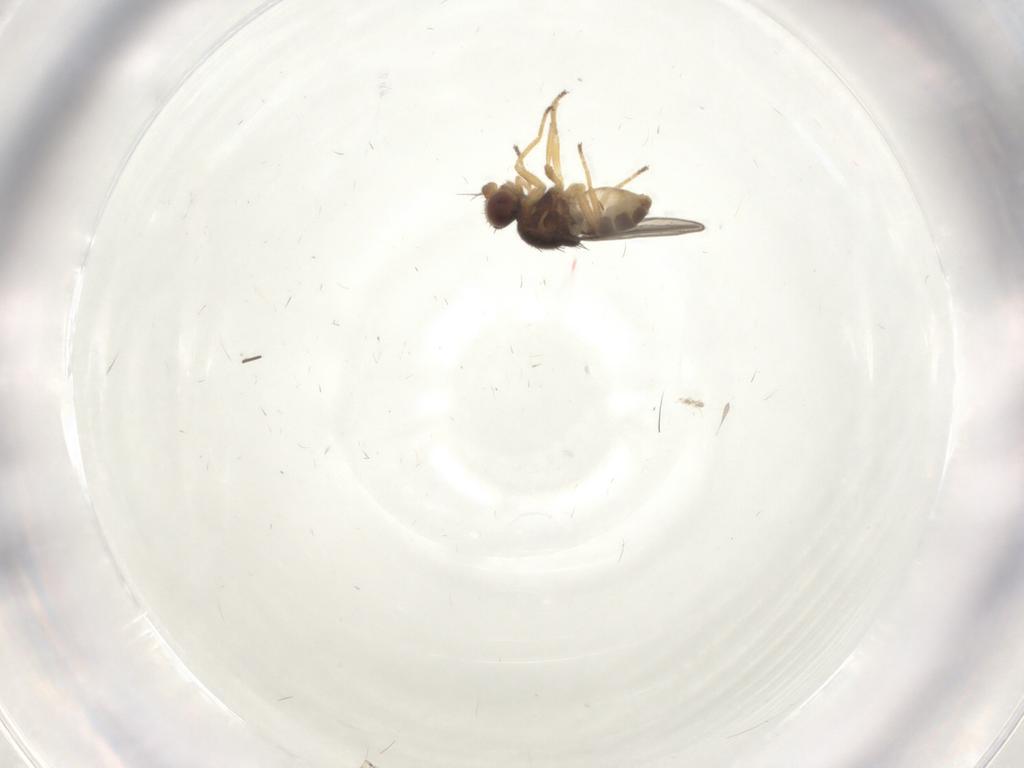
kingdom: Animalia
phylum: Arthropoda
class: Insecta
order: Diptera
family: Chloropidae
